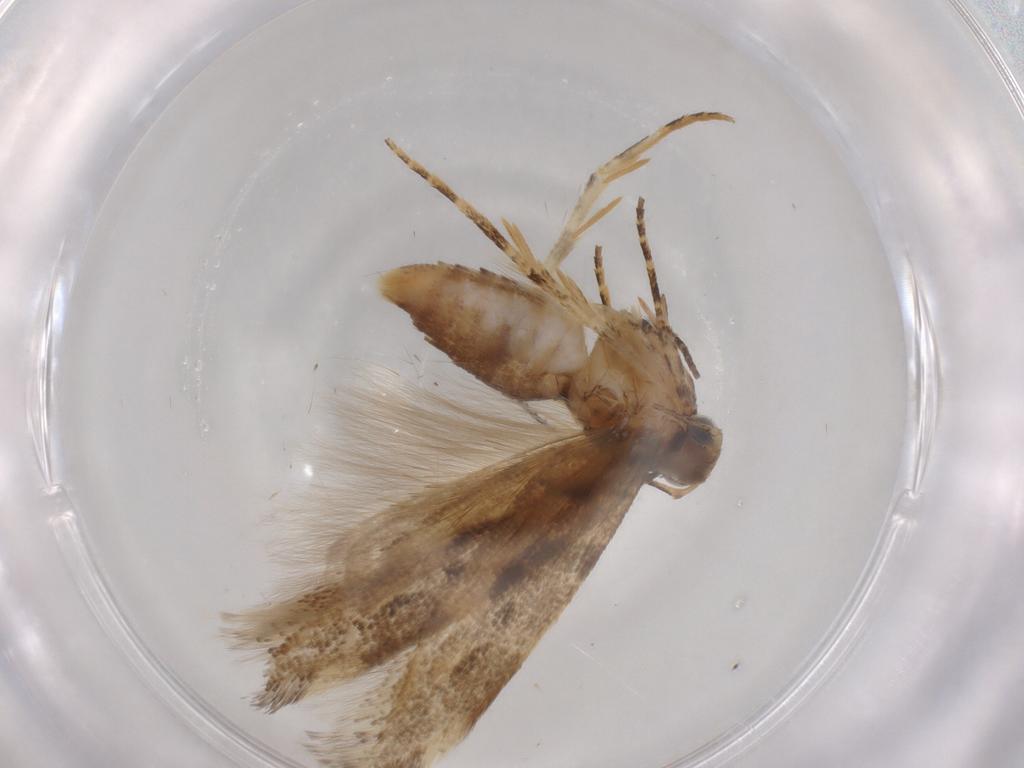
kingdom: Animalia
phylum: Arthropoda
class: Insecta
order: Lepidoptera
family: Gelechiidae
